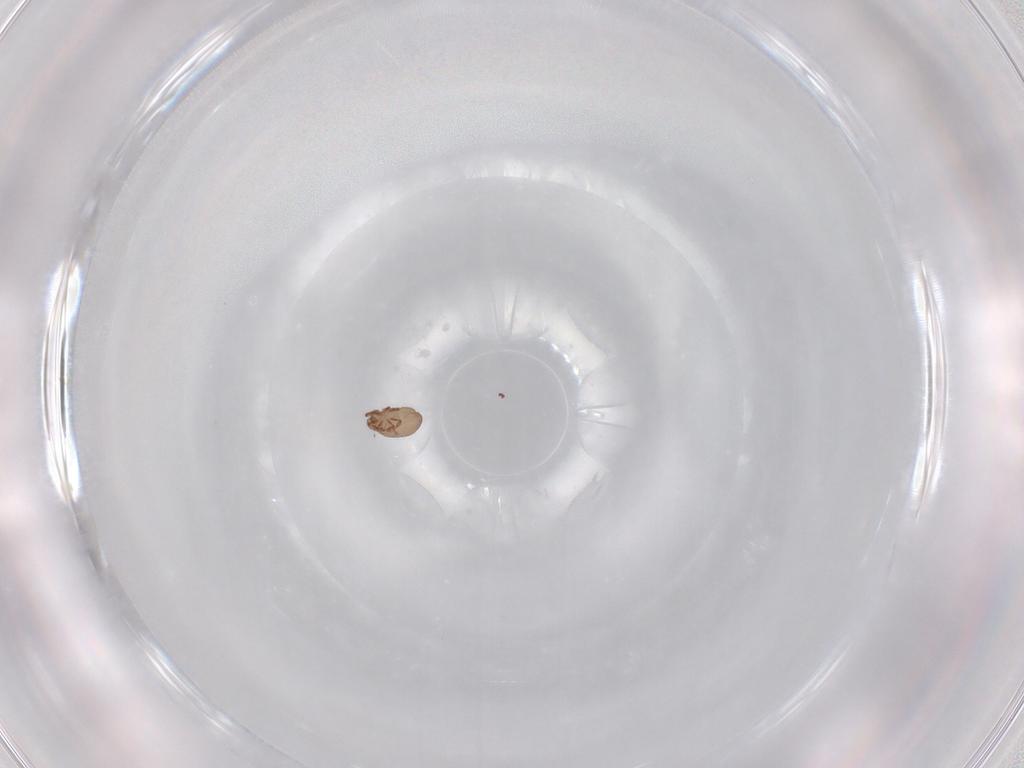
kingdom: Animalia
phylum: Arthropoda
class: Arachnida
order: Sarcoptiformes
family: Eremaeidae
